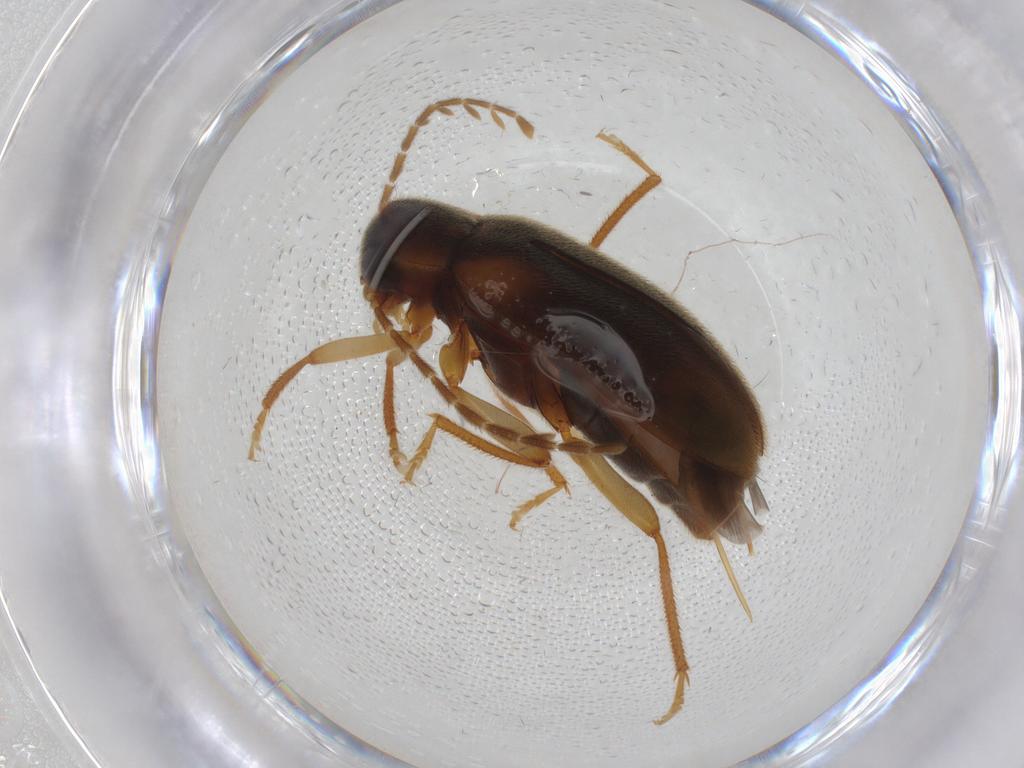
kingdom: Animalia
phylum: Arthropoda
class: Insecta
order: Coleoptera
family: Ptilodactylidae
